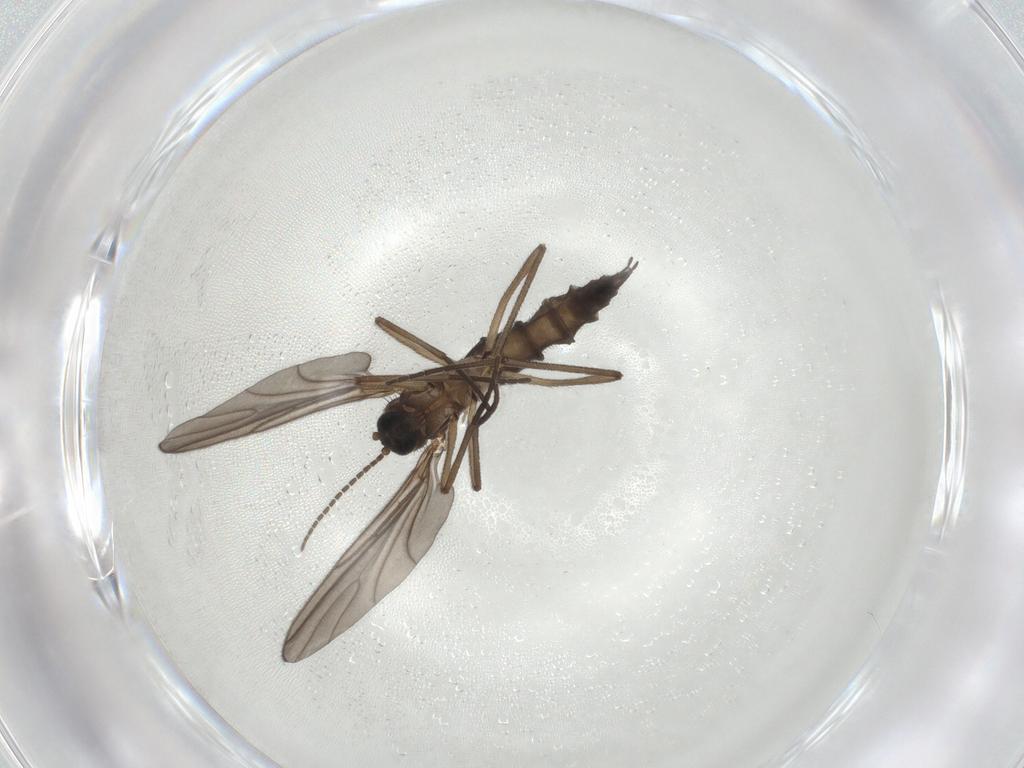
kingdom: Animalia
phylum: Arthropoda
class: Insecta
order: Diptera
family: Sciaridae
